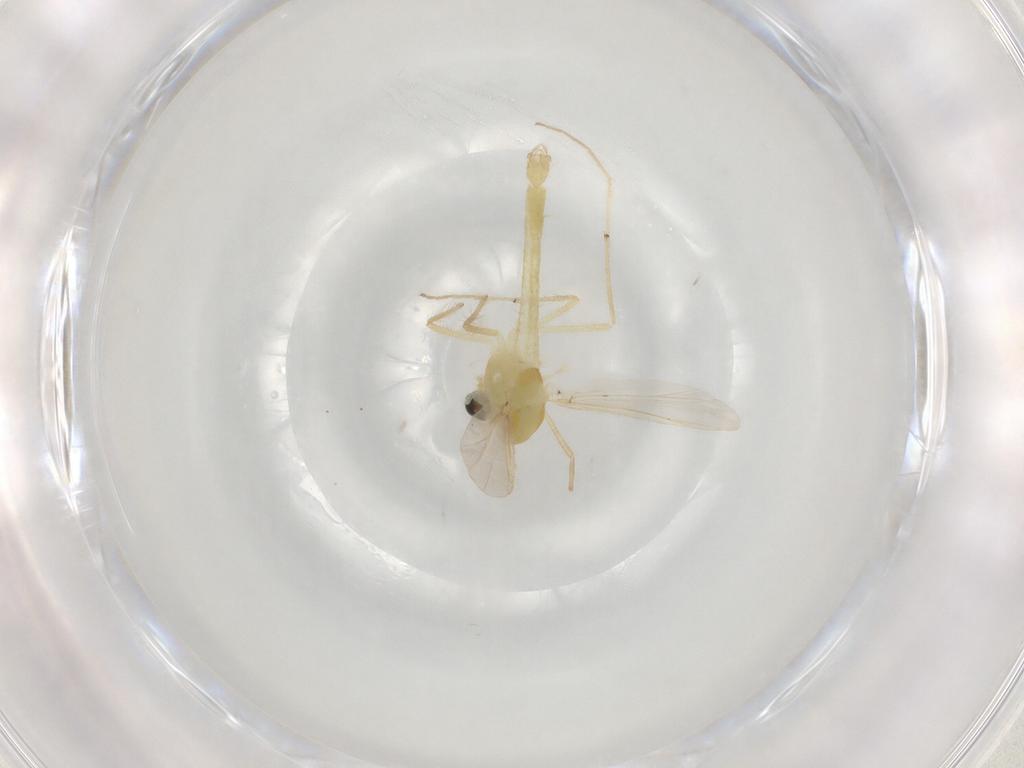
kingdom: Animalia
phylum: Arthropoda
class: Insecta
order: Diptera
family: Chironomidae
